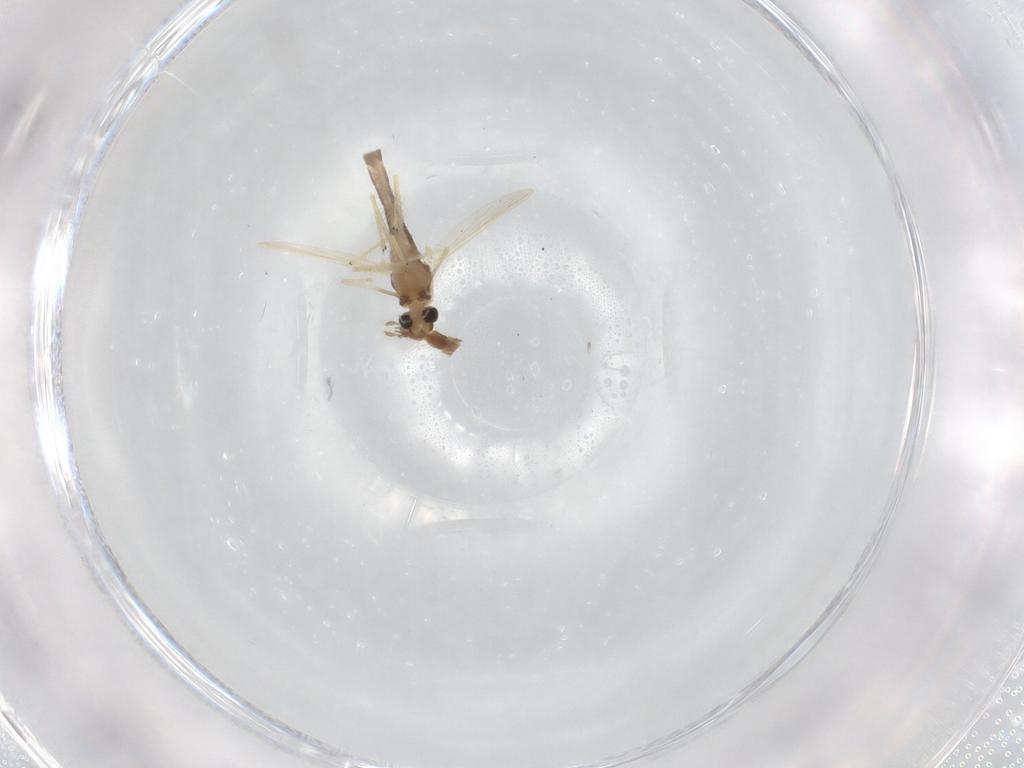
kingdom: Animalia
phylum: Arthropoda
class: Insecta
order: Diptera
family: Chironomidae
